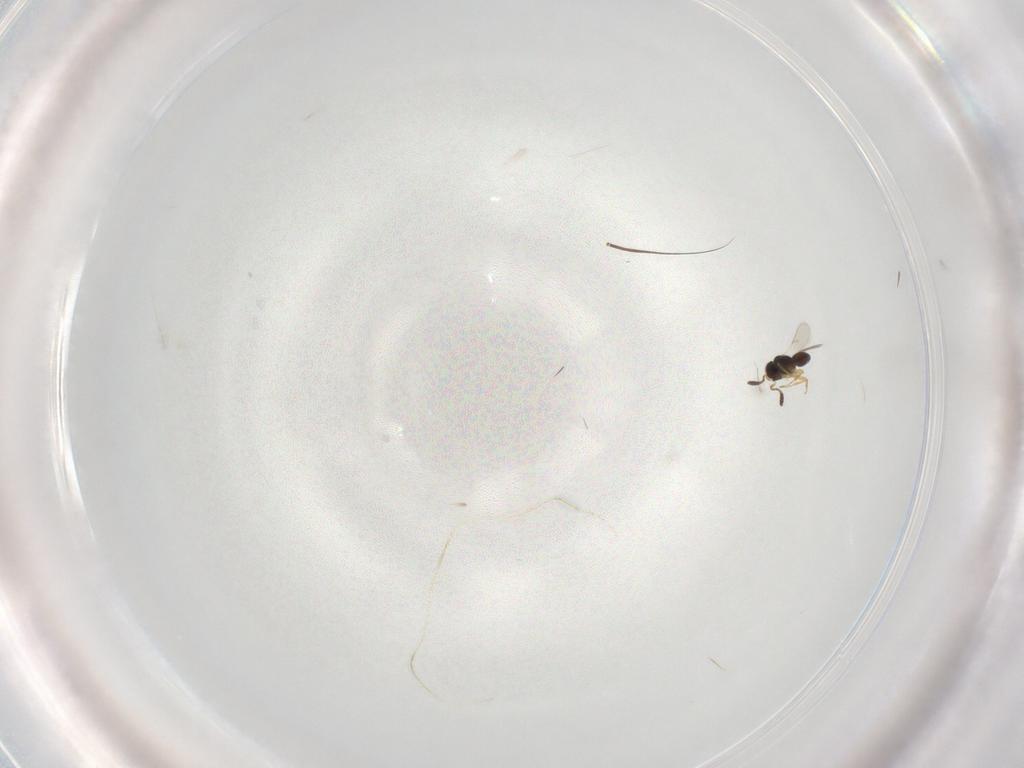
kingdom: Animalia
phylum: Arthropoda
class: Insecta
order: Hymenoptera
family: Scelionidae
